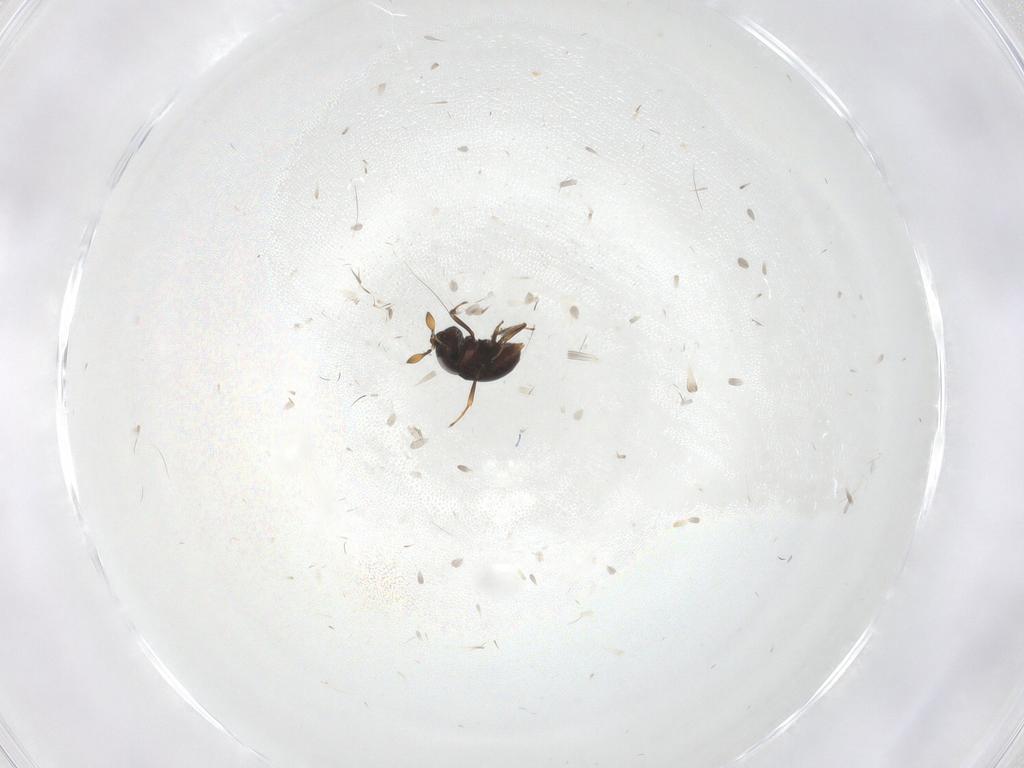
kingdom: Animalia
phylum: Arthropoda
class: Insecta
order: Hymenoptera
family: Scelionidae
